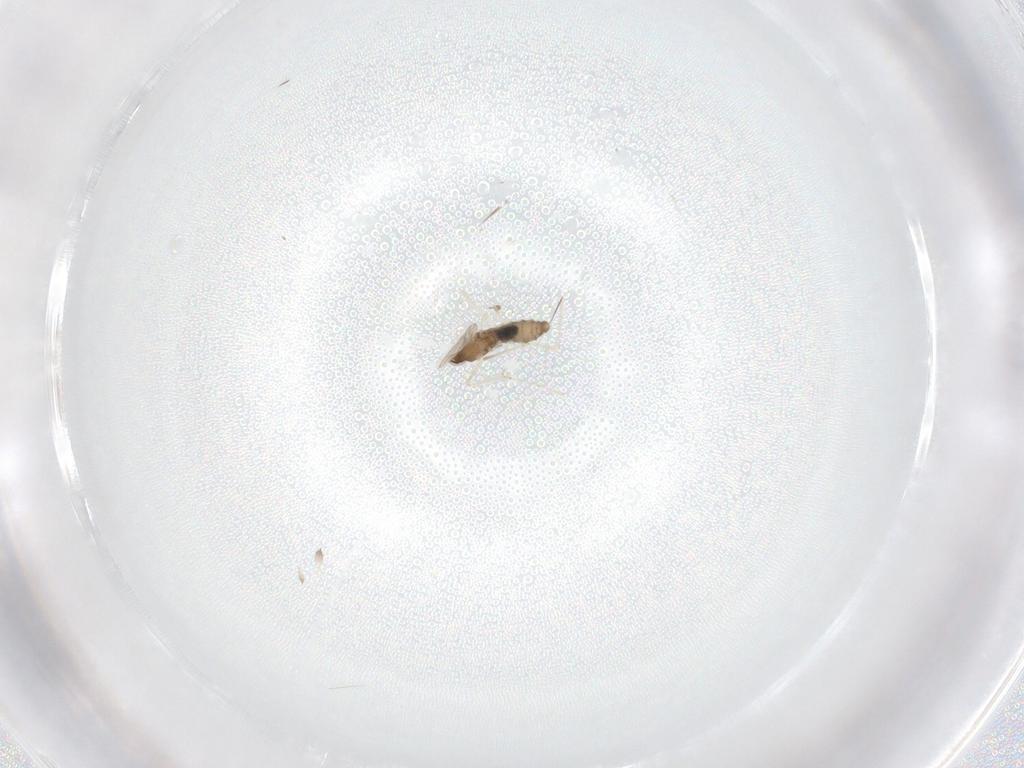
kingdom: Animalia
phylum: Arthropoda
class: Insecta
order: Diptera
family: Cecidomyiidae
